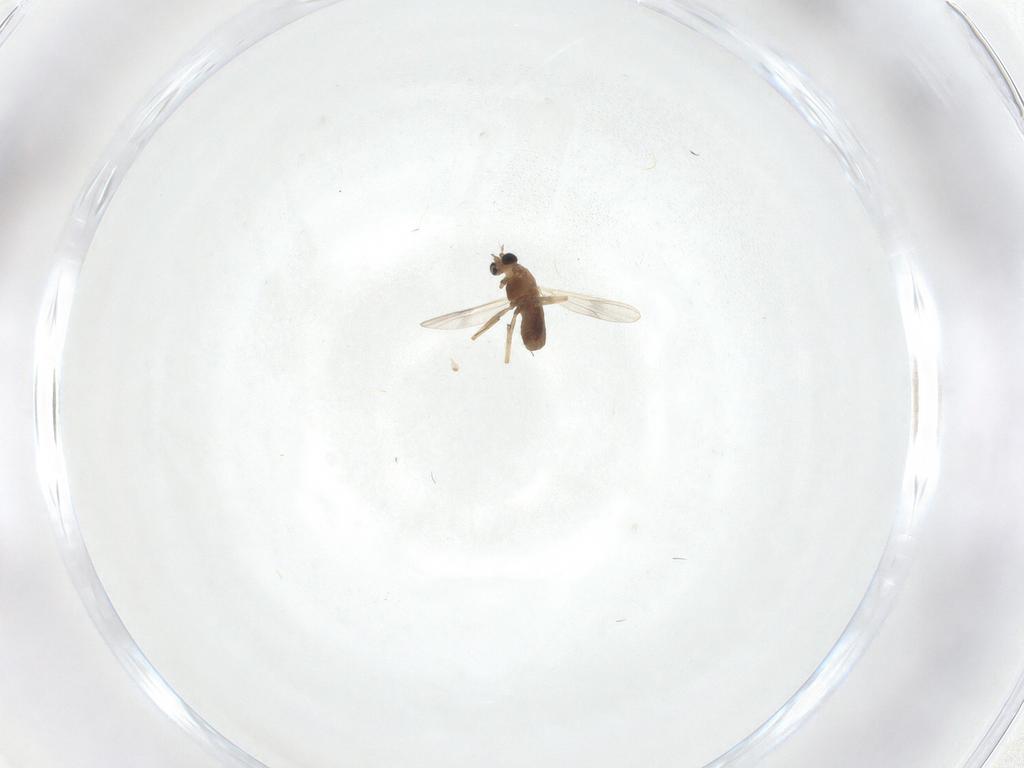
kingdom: Animalia
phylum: Arthropoda
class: Insecta
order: Diptera
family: Chironomidae
